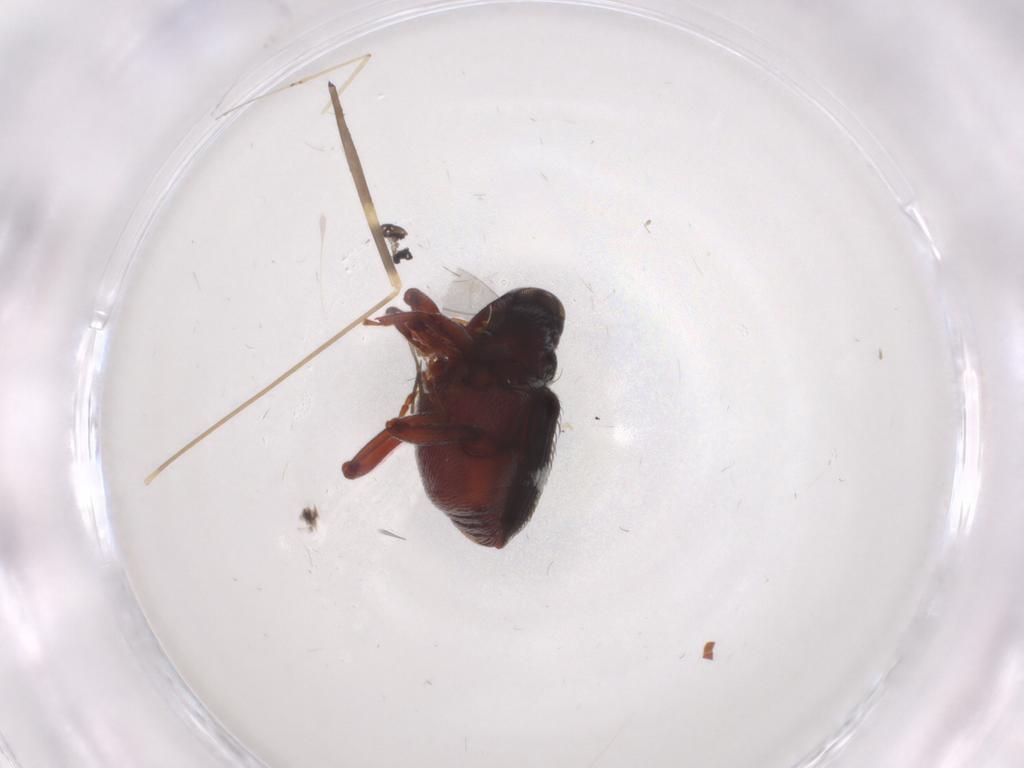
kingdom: Animalia
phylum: Arthropoda
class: Insecta
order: Coleoptera
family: Curculionidae
